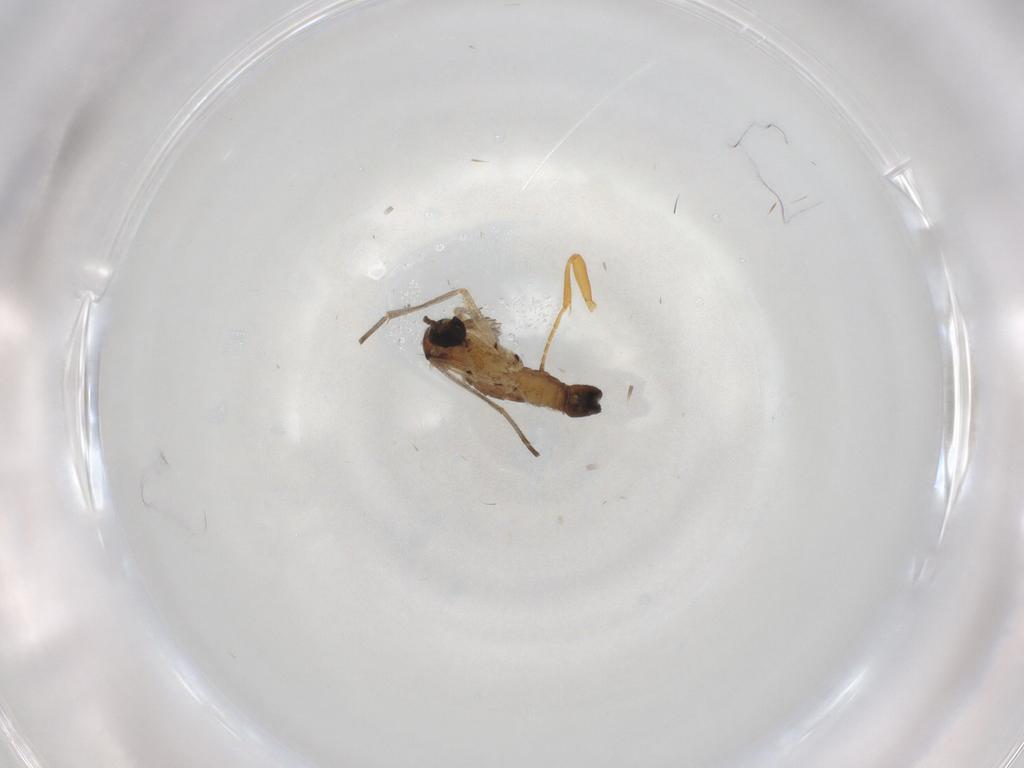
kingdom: Animalia
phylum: Arthropoda
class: Insecta
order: Diptera
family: Sciaridae
